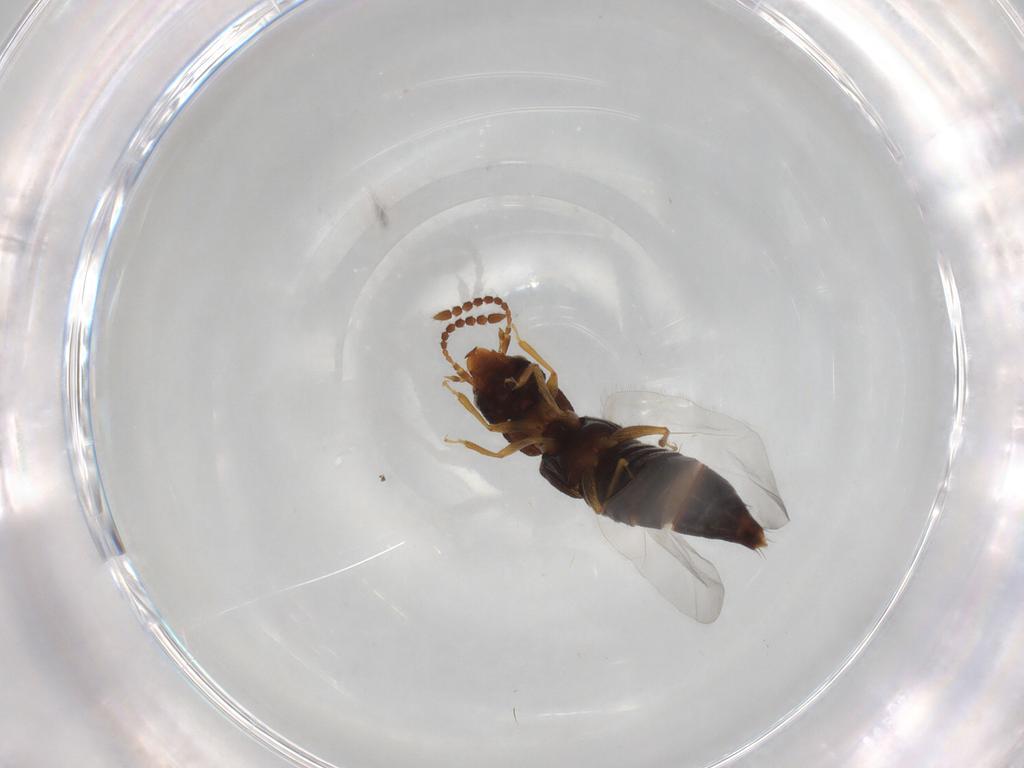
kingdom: Animalia
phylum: Arthropoda
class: Insecta
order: Coleoptera
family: Staphylinidae
